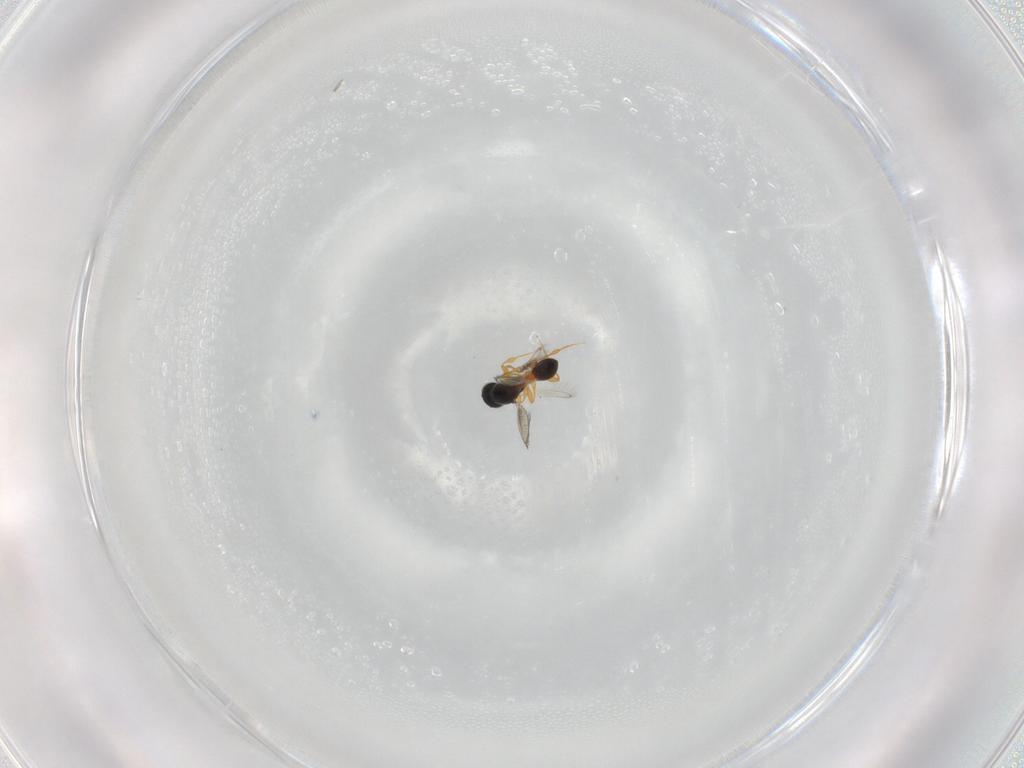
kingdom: Animalia
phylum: Arthropoda
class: Insecta
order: Hymenoptera
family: Platygastridae
